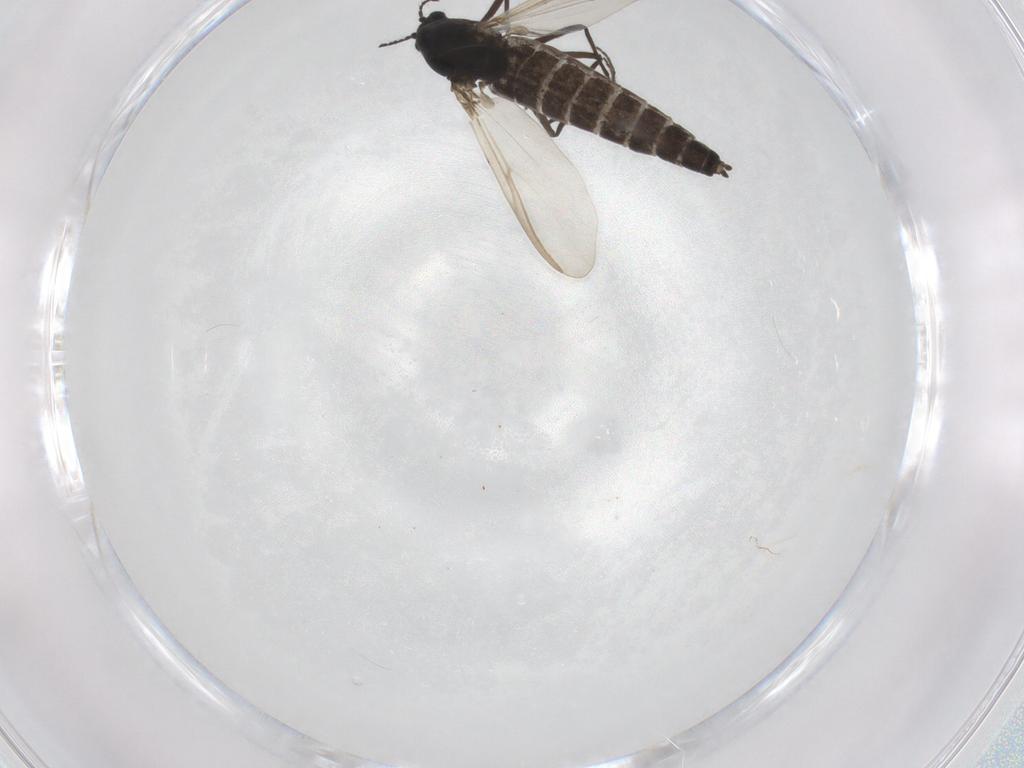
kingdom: Animalia
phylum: Arthropoda
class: Insecta
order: Diptera
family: Chironomidae
